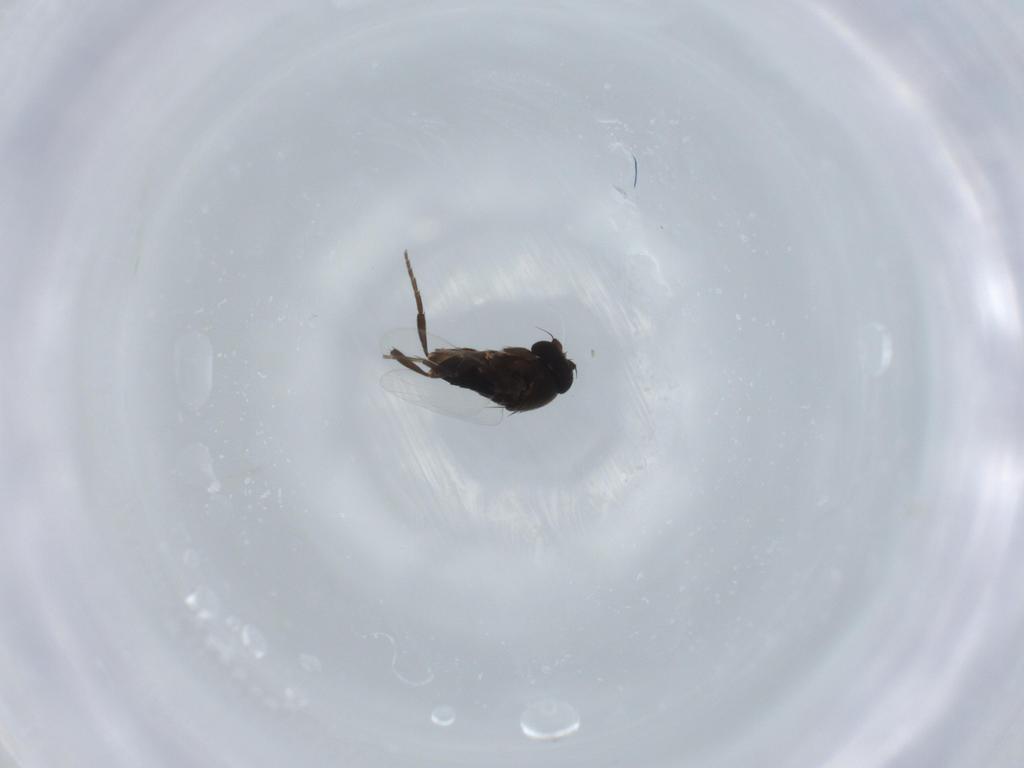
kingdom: Animalia
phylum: Arthropoda
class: Insecta
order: Diptera
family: Phoridae
